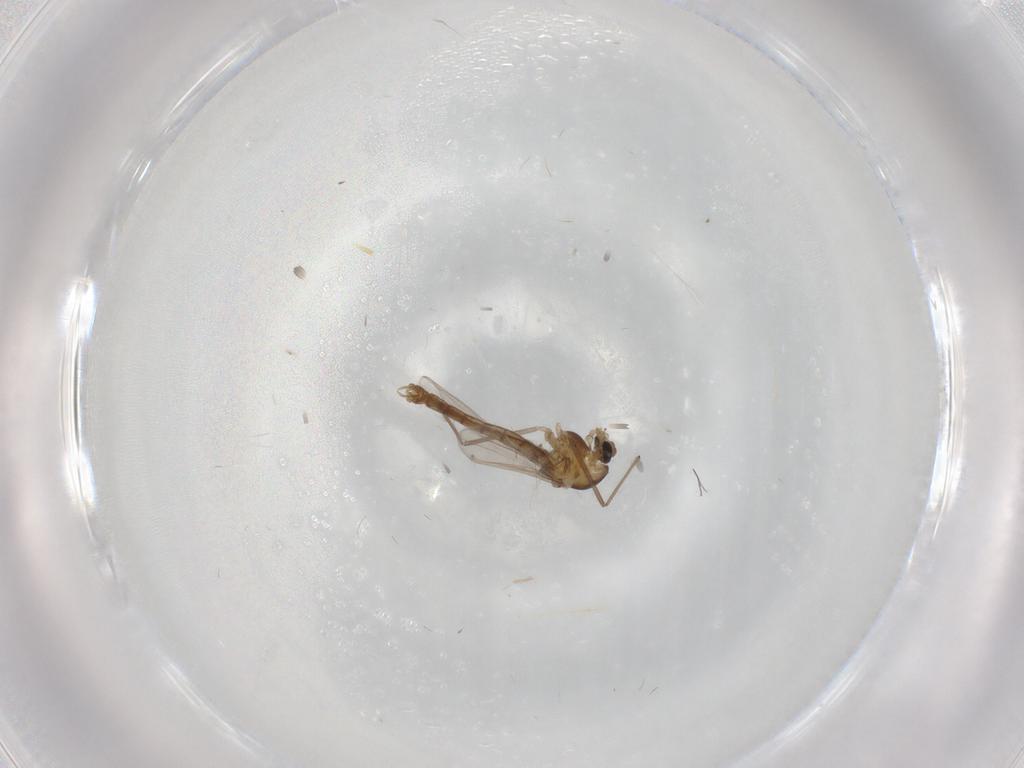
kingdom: Animalia
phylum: Arthropoda
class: Insecta
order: Diptera
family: Chironomidae
